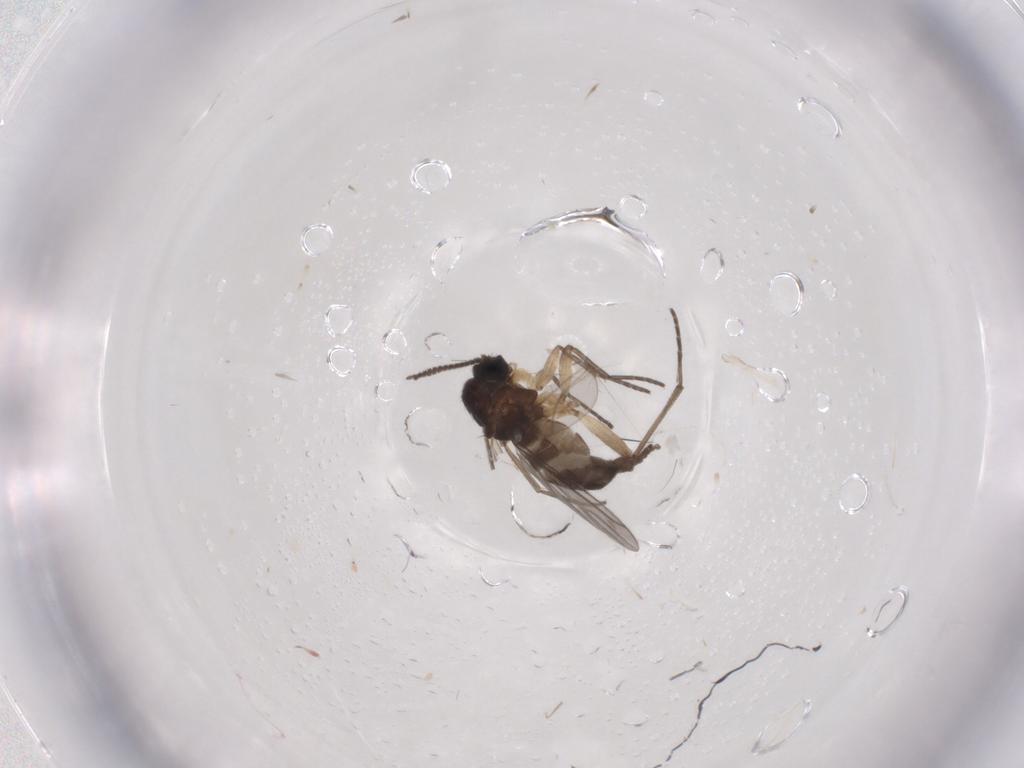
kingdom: Animalia
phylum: Arthropoda
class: Insecta
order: Diptera
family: Sciaridae
